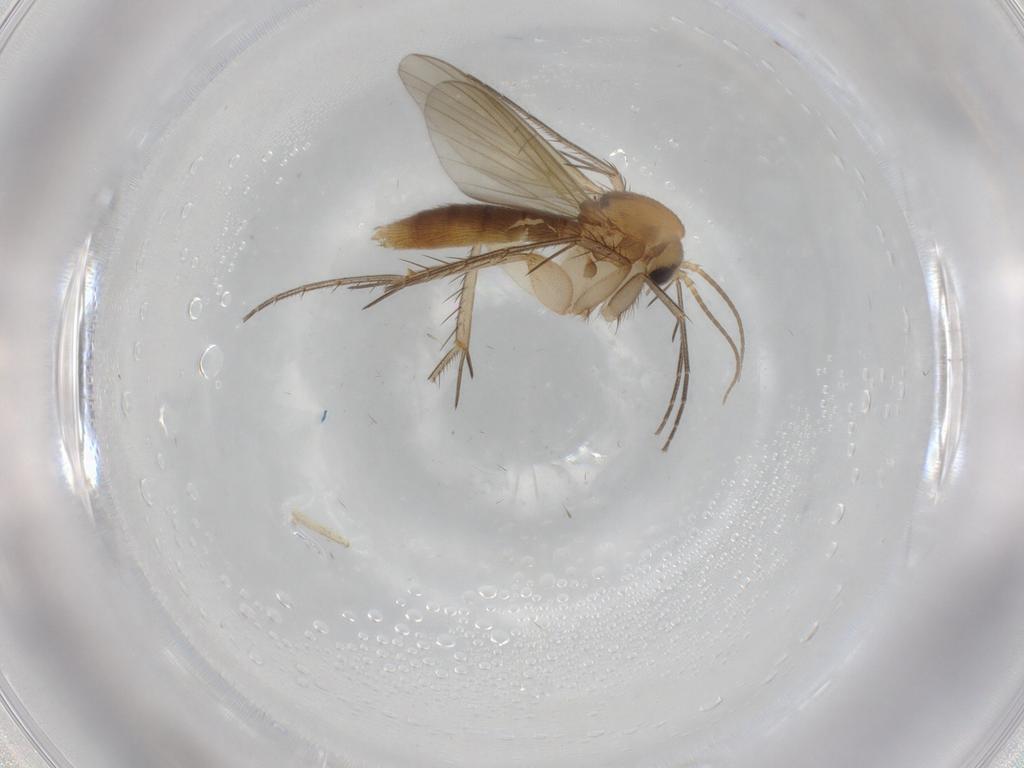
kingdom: Animalia
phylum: Arthropoda
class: Insecta
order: Diptera
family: Mycetophilidae
